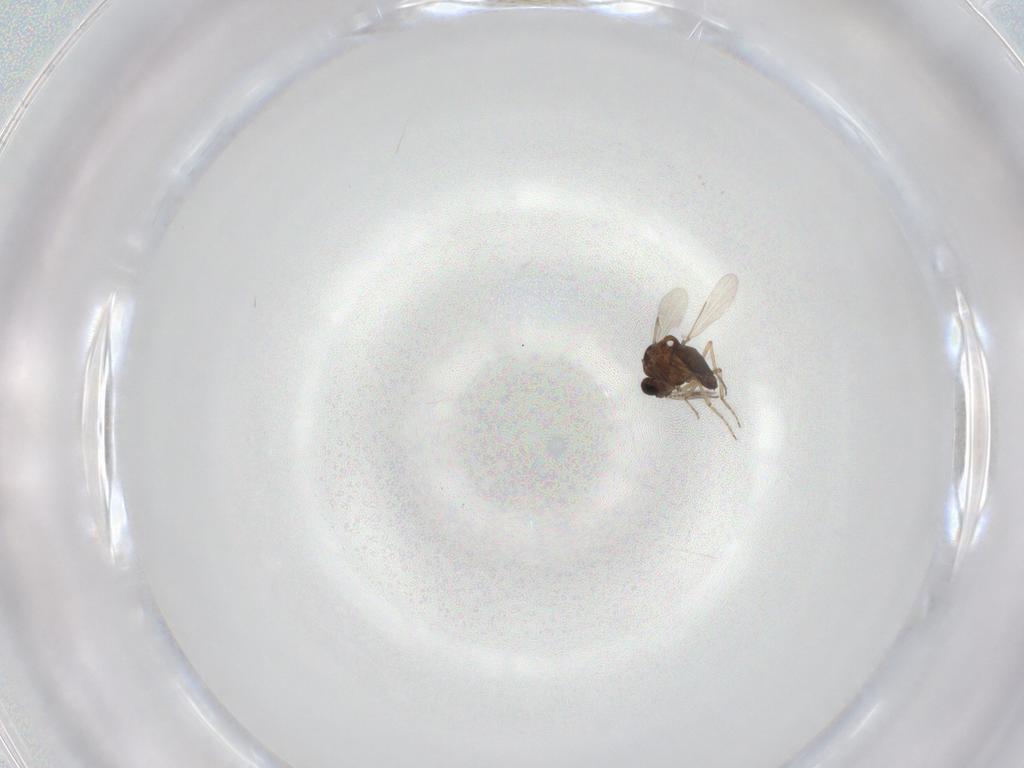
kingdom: Animalia
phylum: Arthropoda
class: Insecta
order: Diptera
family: Ceratopogonidae
